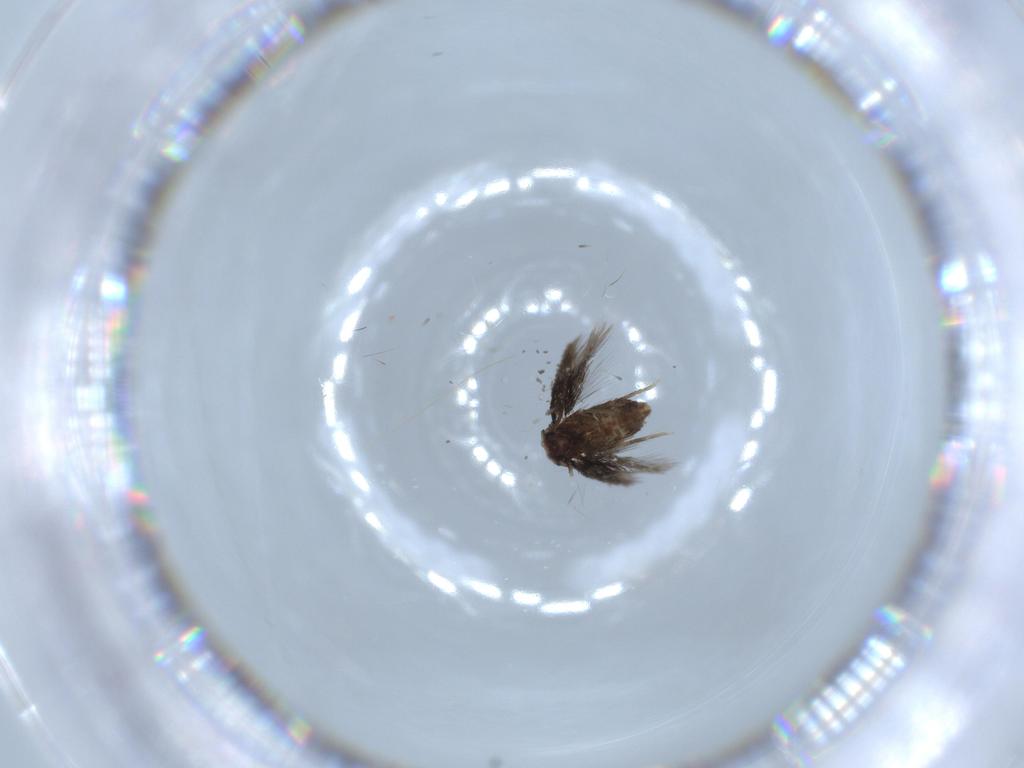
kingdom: Animalia
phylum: Arthropoda
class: Insecta
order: Lepidoptera
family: Nepticulidae
